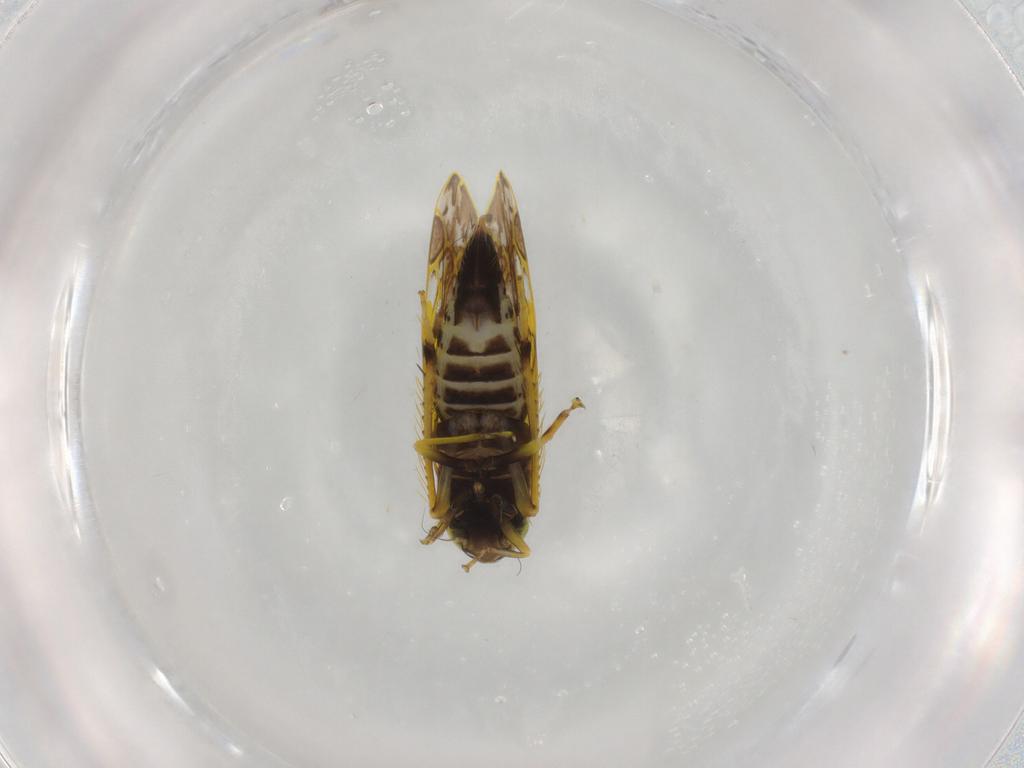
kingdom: Animalia
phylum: Arthropoda
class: Insecta
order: Hemiptera
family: Cicadellidae
